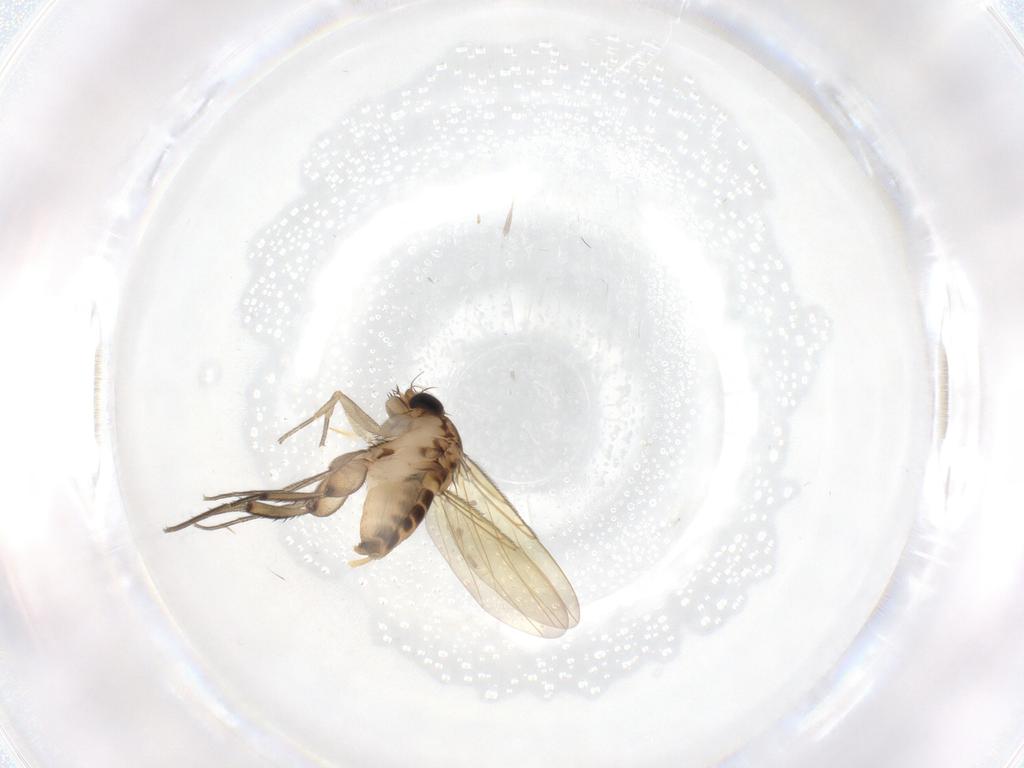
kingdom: Animalia
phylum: Arthropoda
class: Insecta
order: Diptera
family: Phoridae
